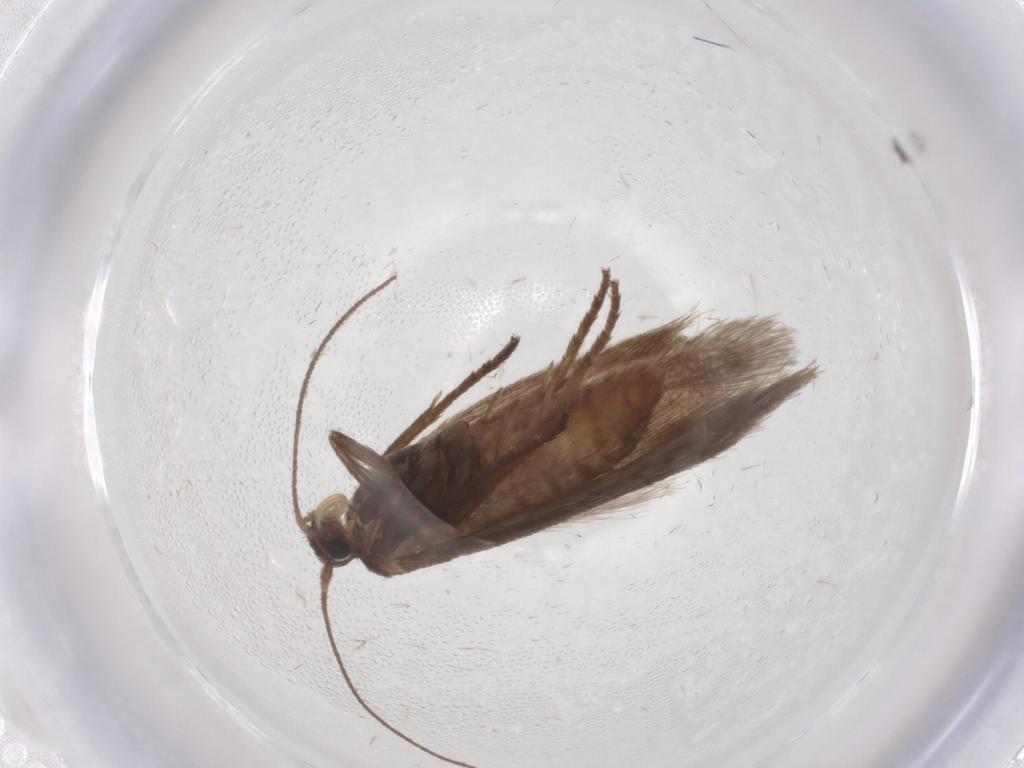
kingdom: Animalia
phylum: Arthropoda
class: Insecta
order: Lepidoptera
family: Limacodidae
